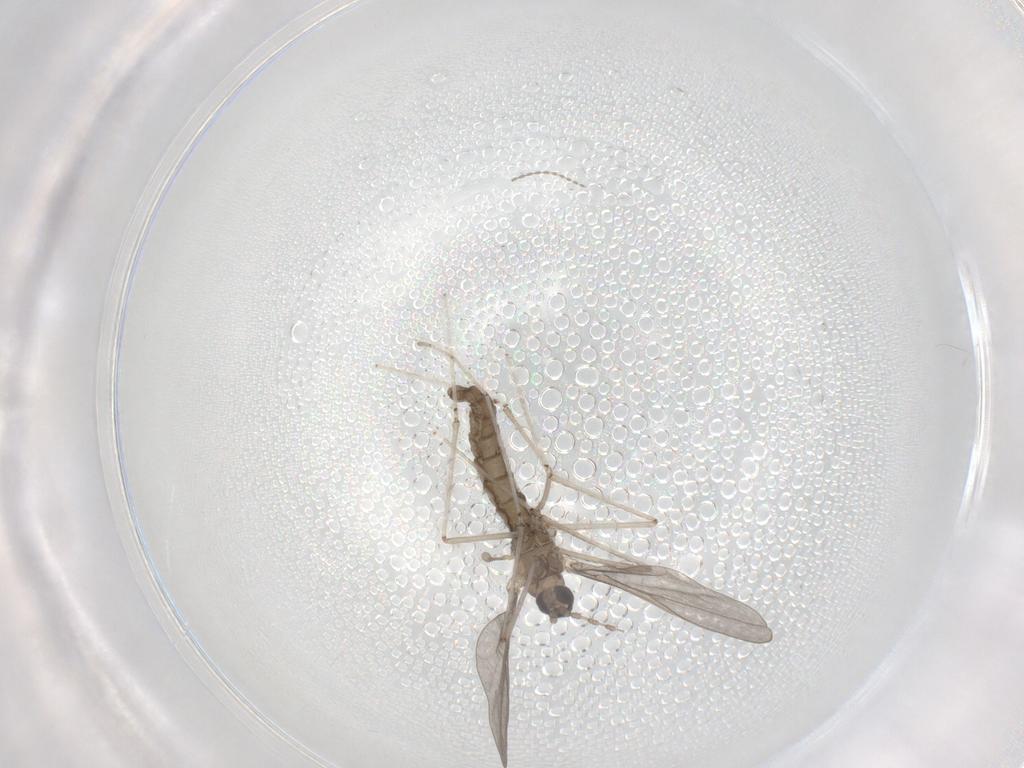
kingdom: Animalia
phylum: Arthropoda
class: Insecta
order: Diptera
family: Cecidomyiidae
